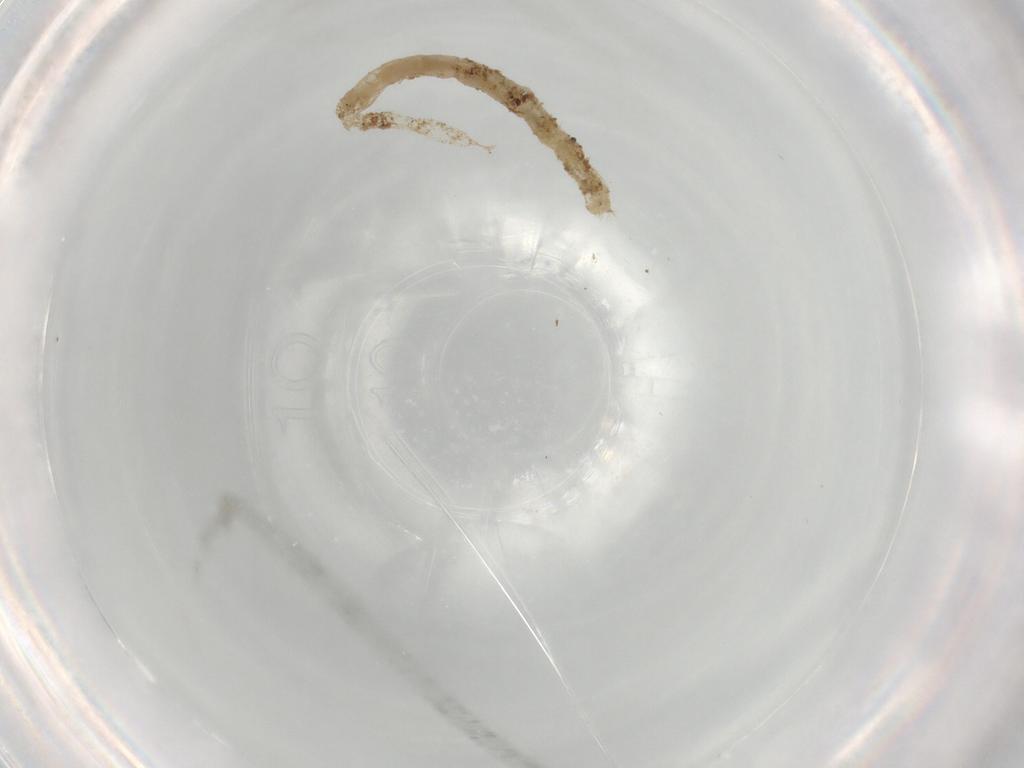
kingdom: Animalia
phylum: Arthropoda
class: Insecta
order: Diptera
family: Chironomidae
